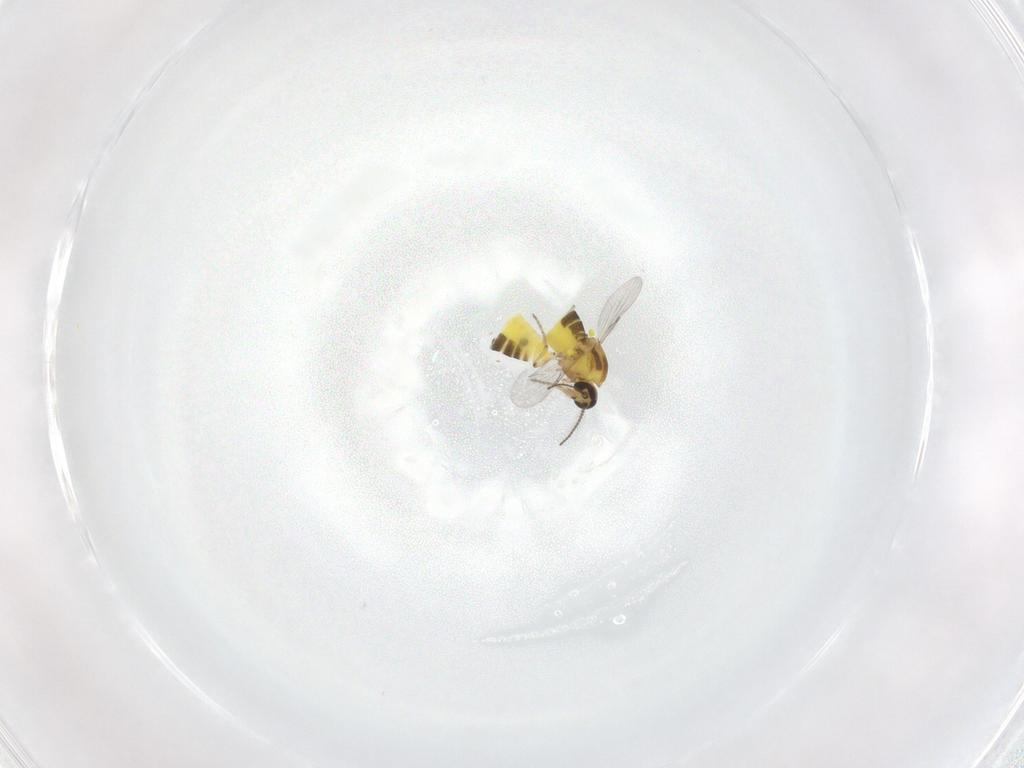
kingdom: Animalia
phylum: Arthropoda
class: Insecta
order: Diptera
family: Ceratopogonidae
